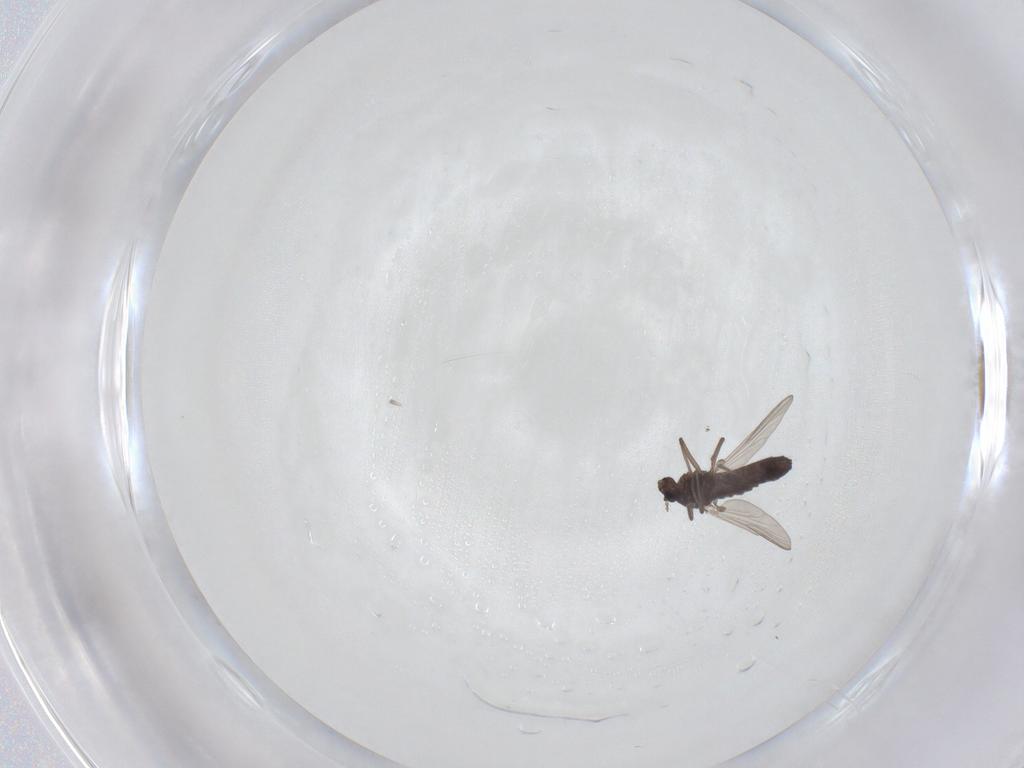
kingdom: Animalia
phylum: Arthropoda
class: Insecta
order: Diptera
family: Chironomidae
